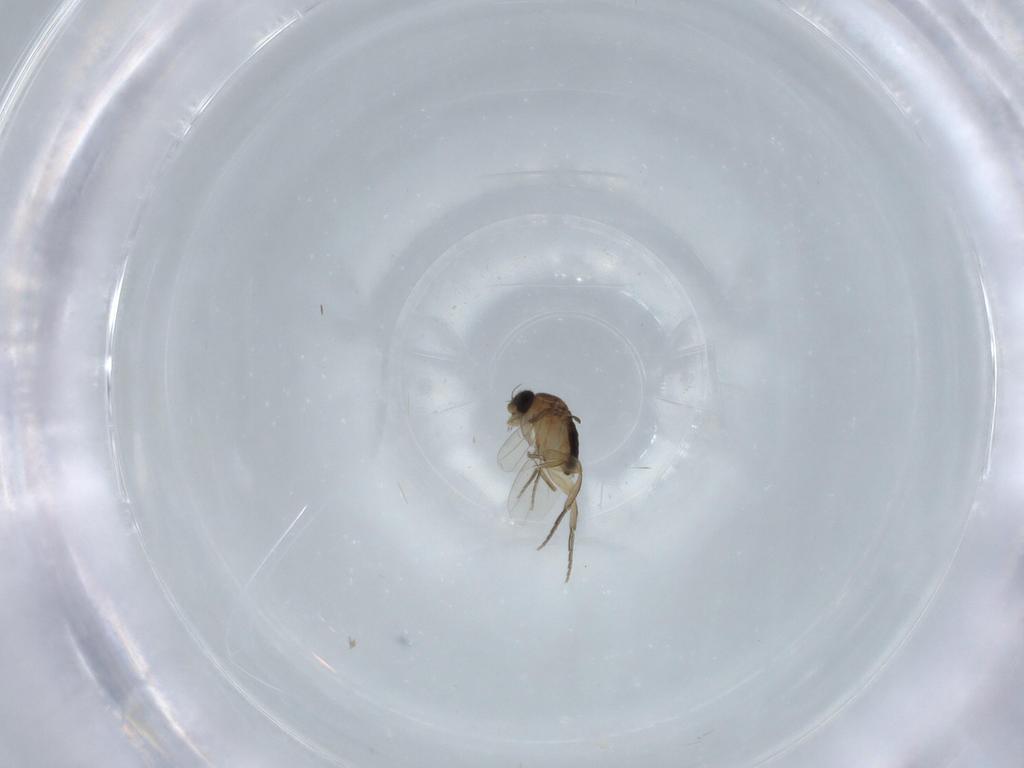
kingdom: Animalia
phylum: Arthropoda
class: Insecta
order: Diptera
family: Phoridae
